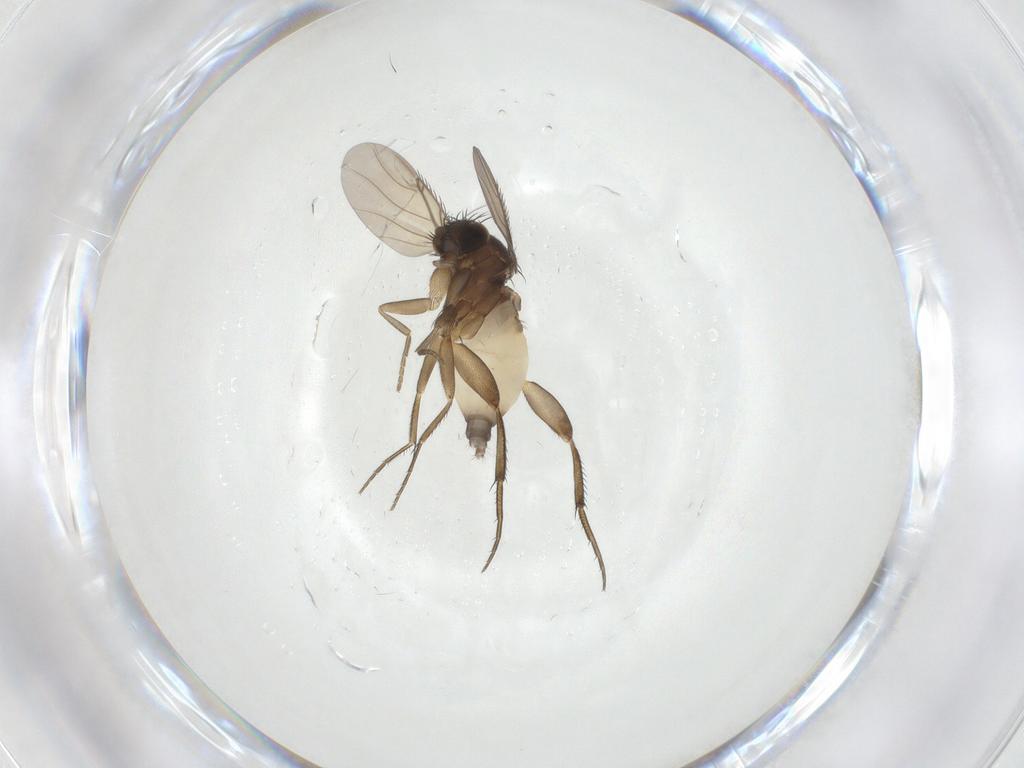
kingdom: Animalia
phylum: Arthropoda
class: Insecta
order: Diptera
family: Phoridae
